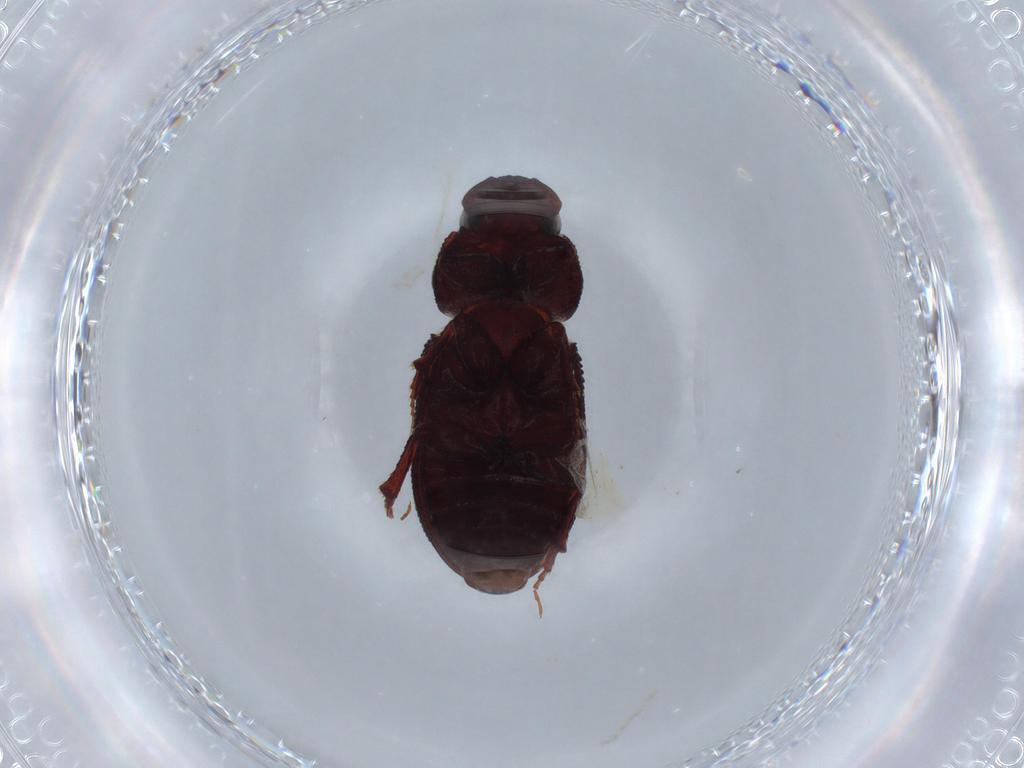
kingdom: Animalia
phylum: Arthropoda
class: Insecta
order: Coleoptera
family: Latridiidae
